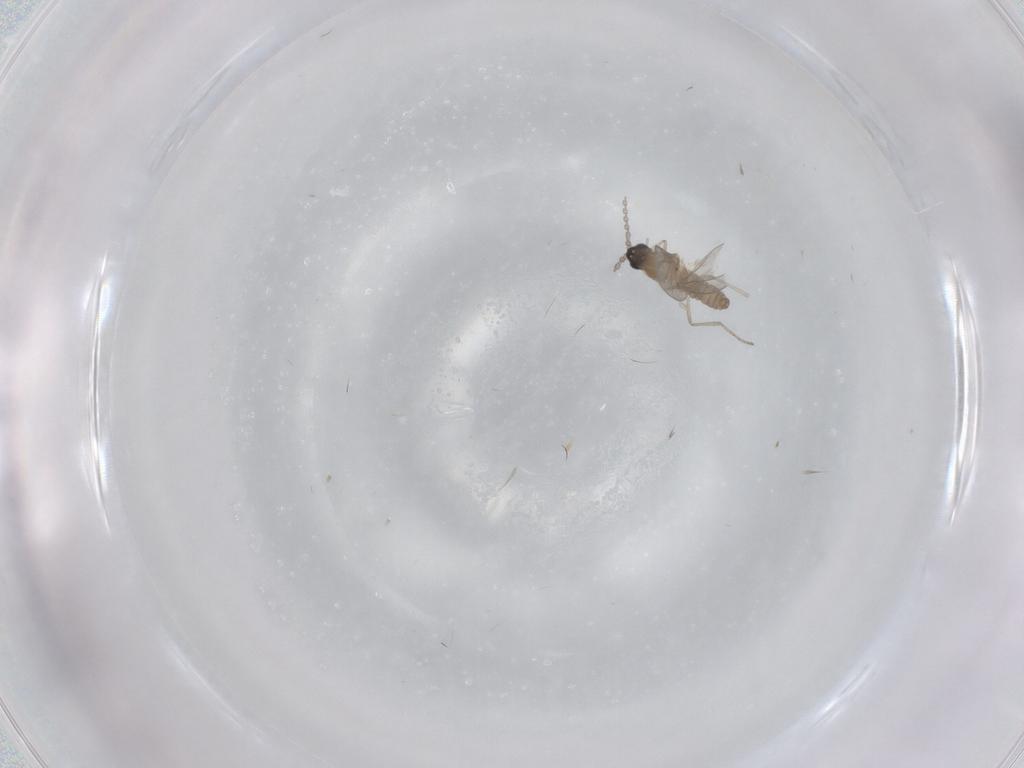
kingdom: Animalia
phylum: Arthropoda
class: Insecta
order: Diptera
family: Cecidomyiidae
